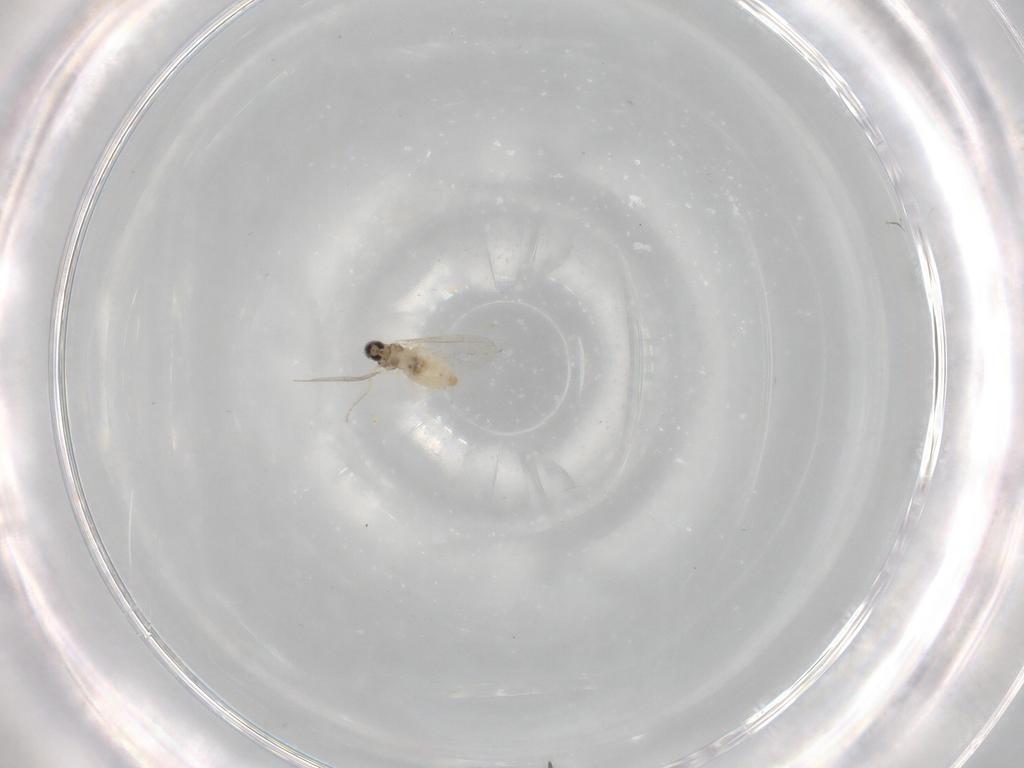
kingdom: Animalia
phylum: Arthropoda
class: Insecta
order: Diptera
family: Cecidomyiidae
